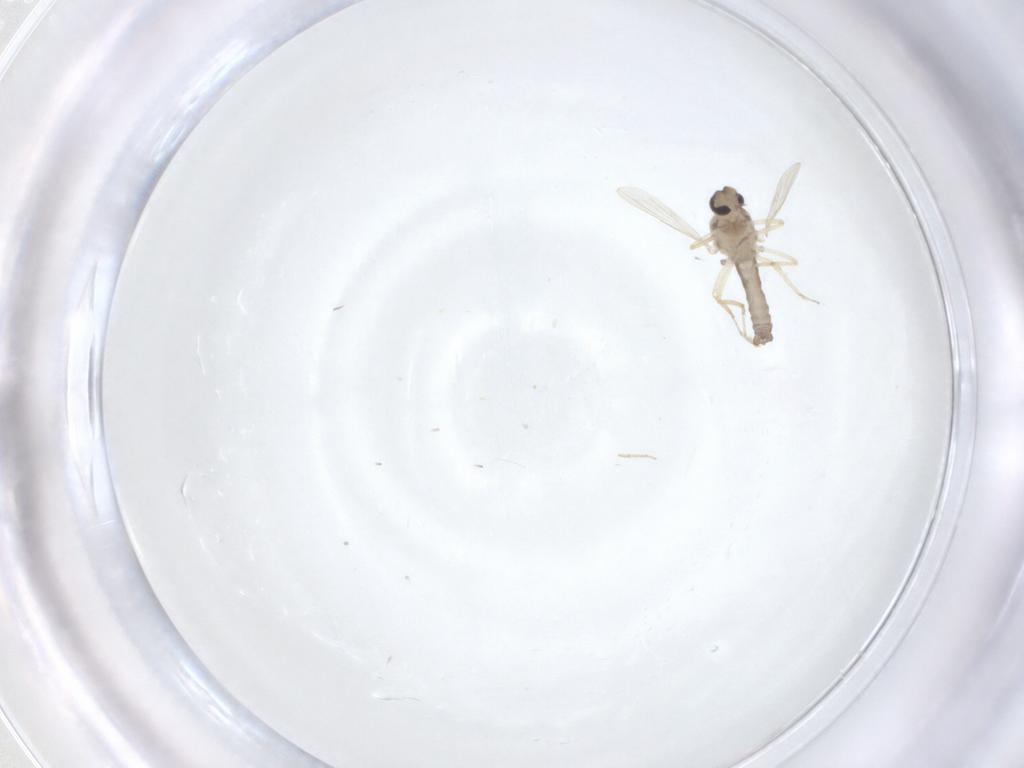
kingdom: Animalia
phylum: Arthropoda
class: Insecta
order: Diptera
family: Ceratopogonidae
